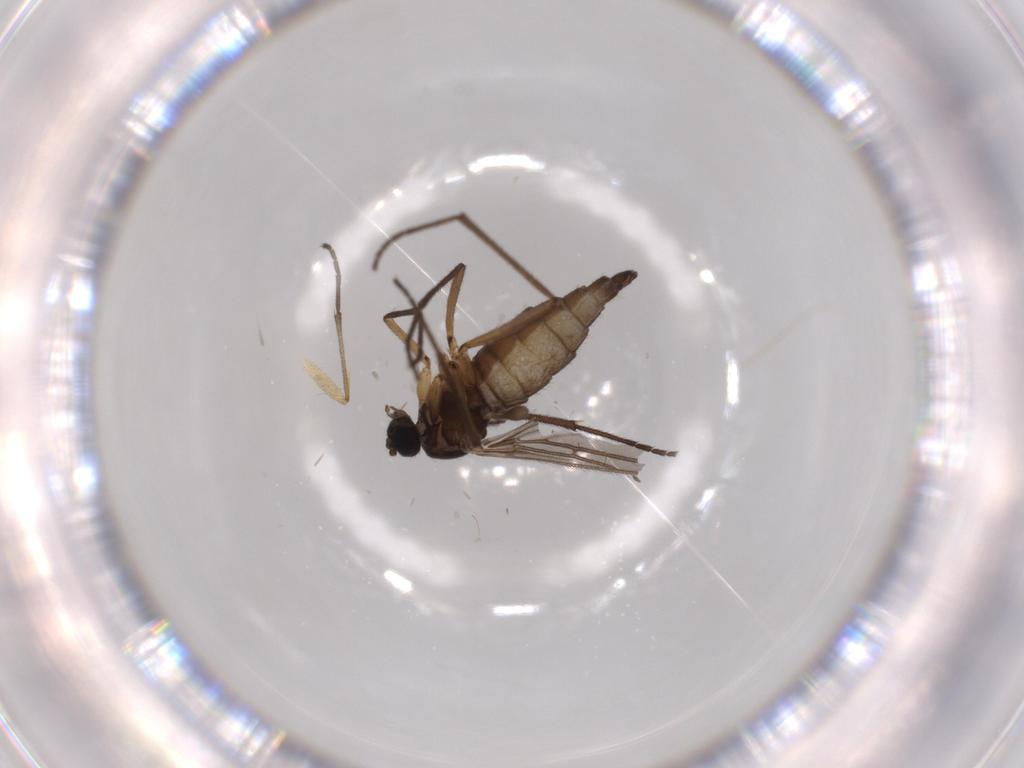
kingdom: Animalia
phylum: Arthropoda
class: Insecta
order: Diptera
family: Sciaridae
